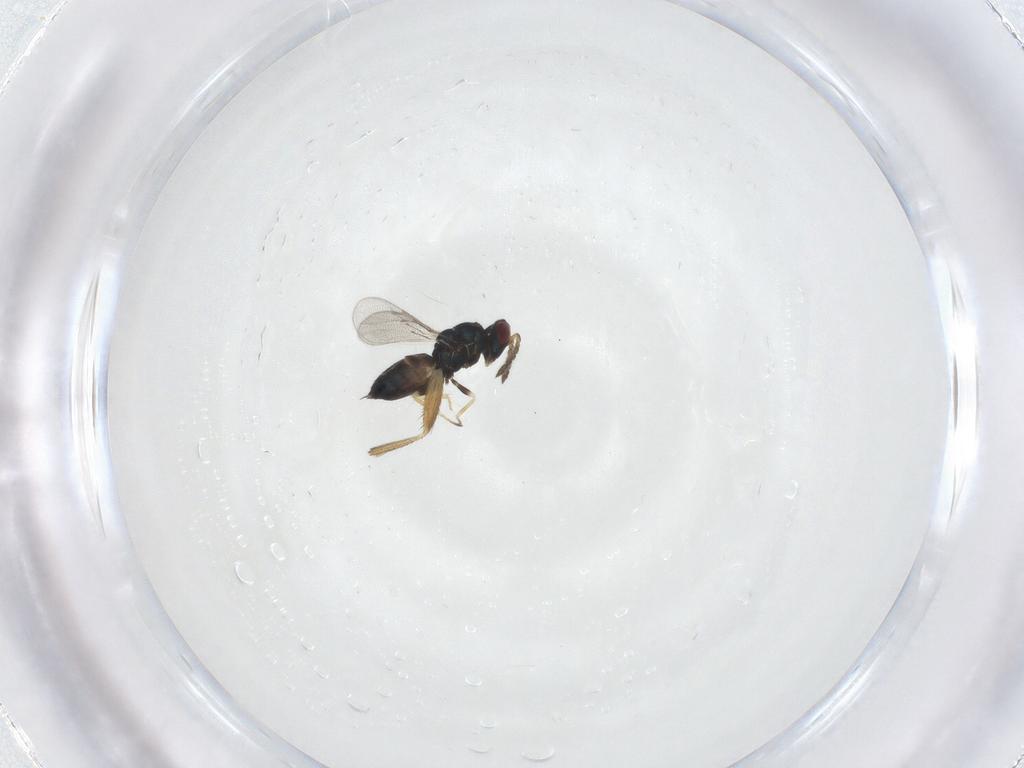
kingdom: Animalia
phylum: Arthropoda
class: Insecta
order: Hymenoptera
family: Eulophidae
